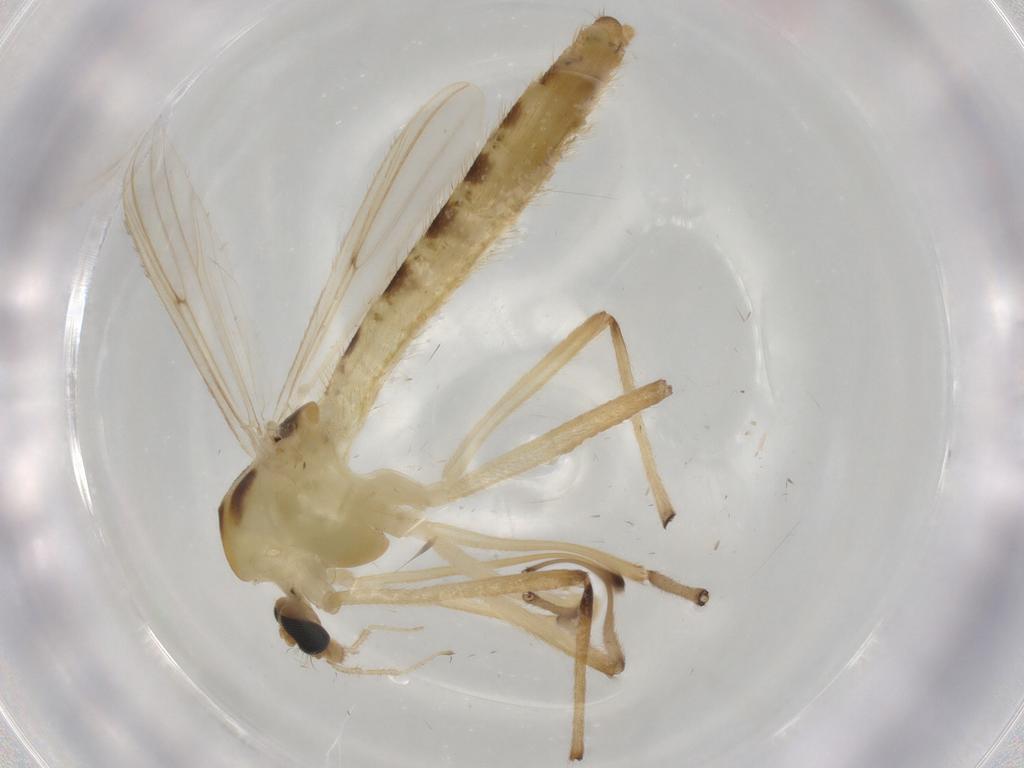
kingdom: Animalia
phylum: Arthropoda
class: Insecta
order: Diptera
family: Chironomidae
